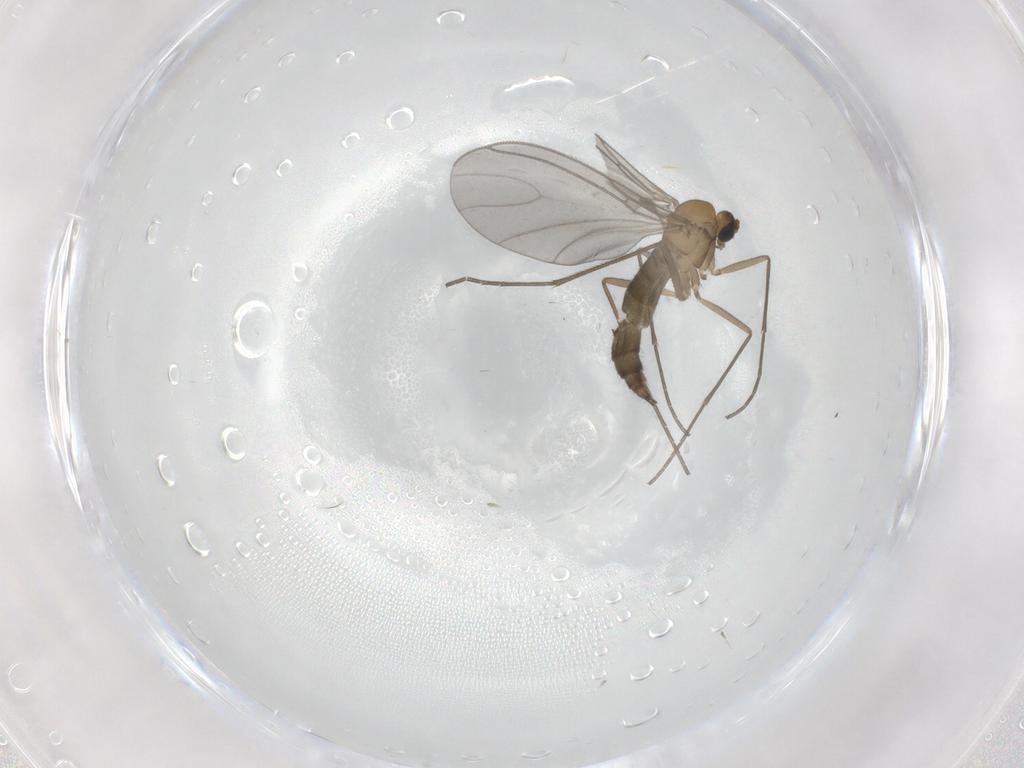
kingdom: Animalia
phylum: Arthropoda
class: Insecta
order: Diptera
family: Sciaridae
